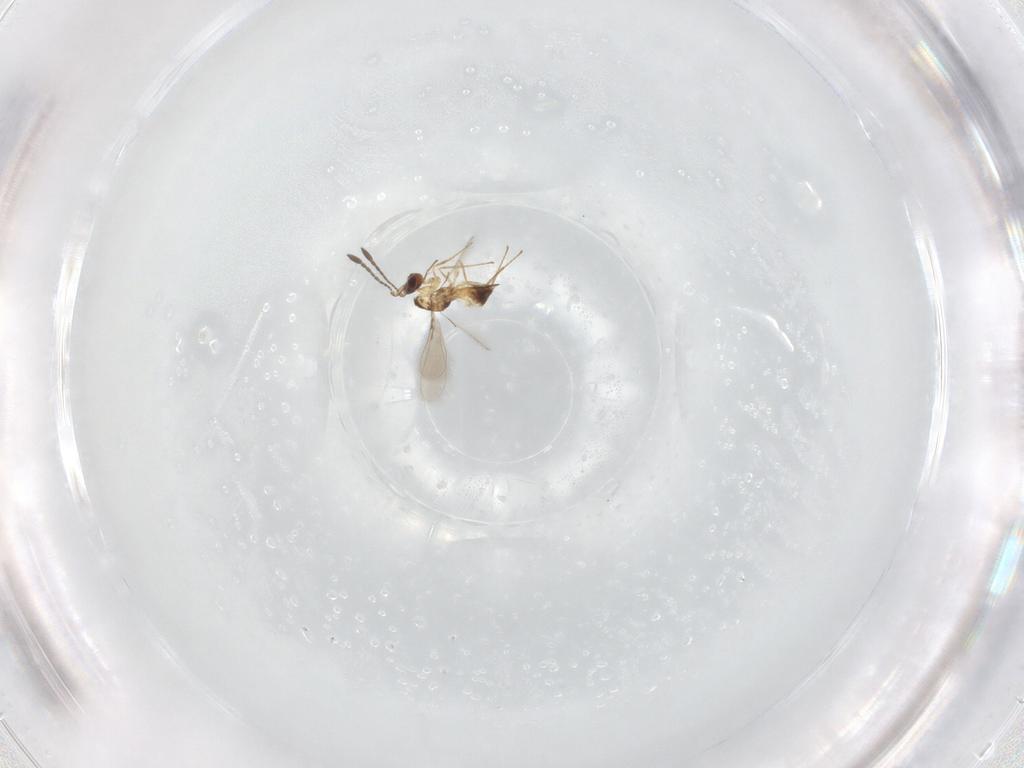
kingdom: Animalia
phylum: Arthropoda
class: Insecta
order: Hymenoptera
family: Mymaridae
